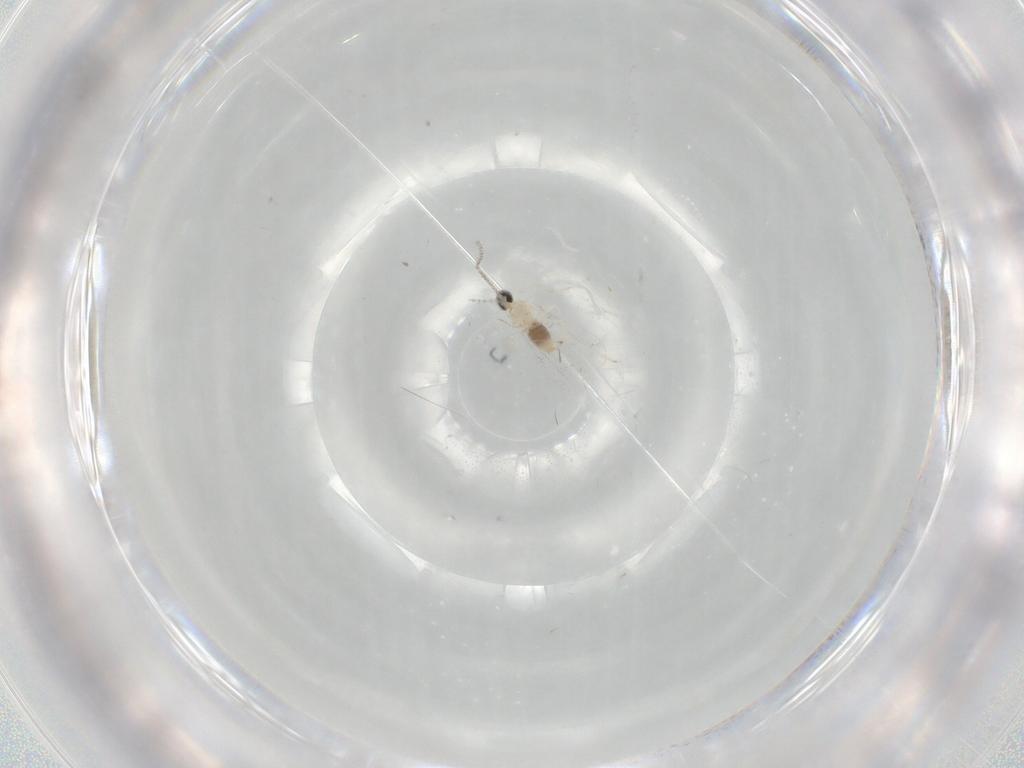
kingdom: Animalia
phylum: Arthropoda
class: Insecta
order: Diptera
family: Cecidomyiidae
